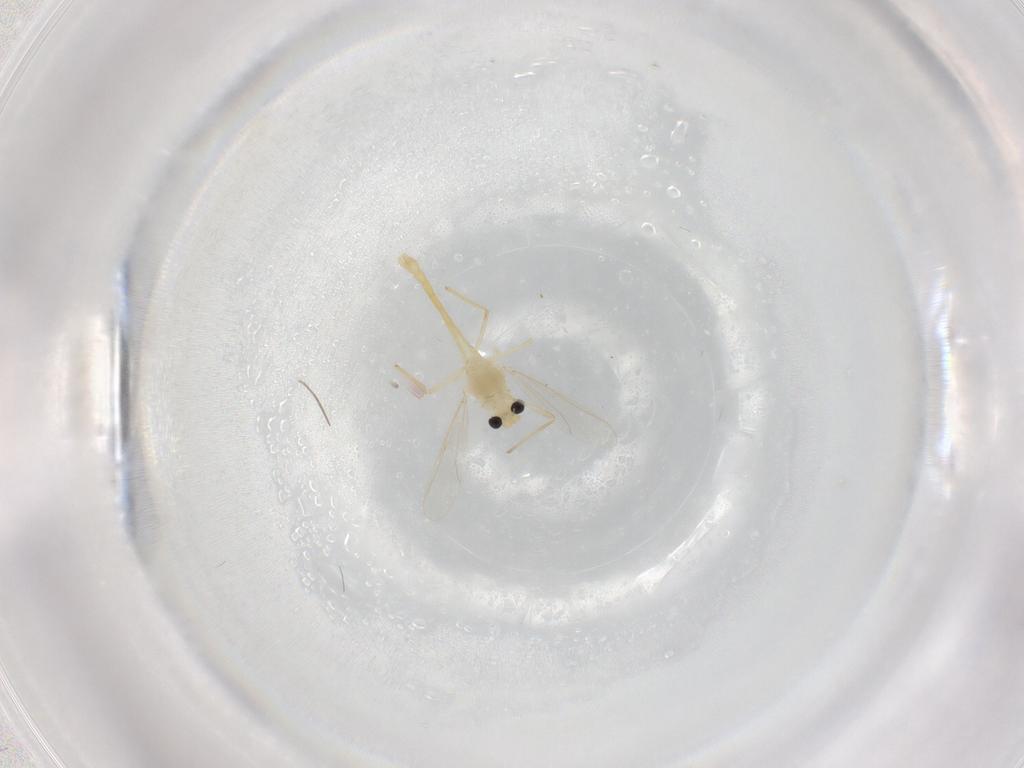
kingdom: Animalia
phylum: Arthropoda
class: Insecta
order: Diptera
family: Chironomidae
